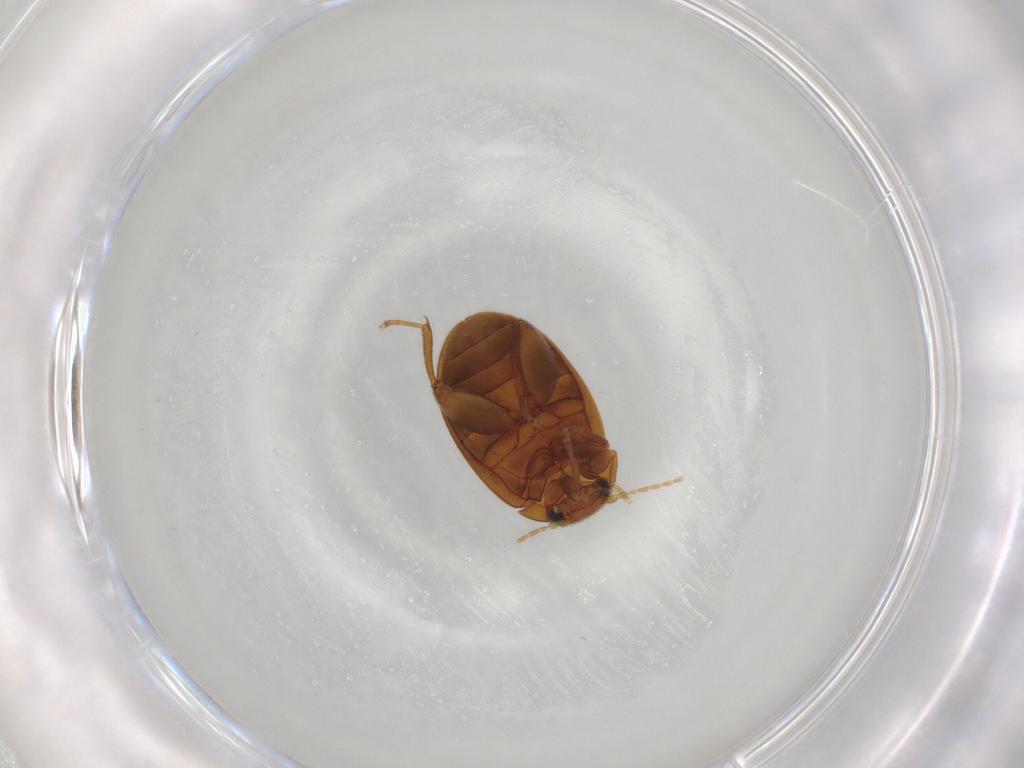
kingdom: Animalia
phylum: Arthropoda
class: Insecta
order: Coleoptera
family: Scirtidae
